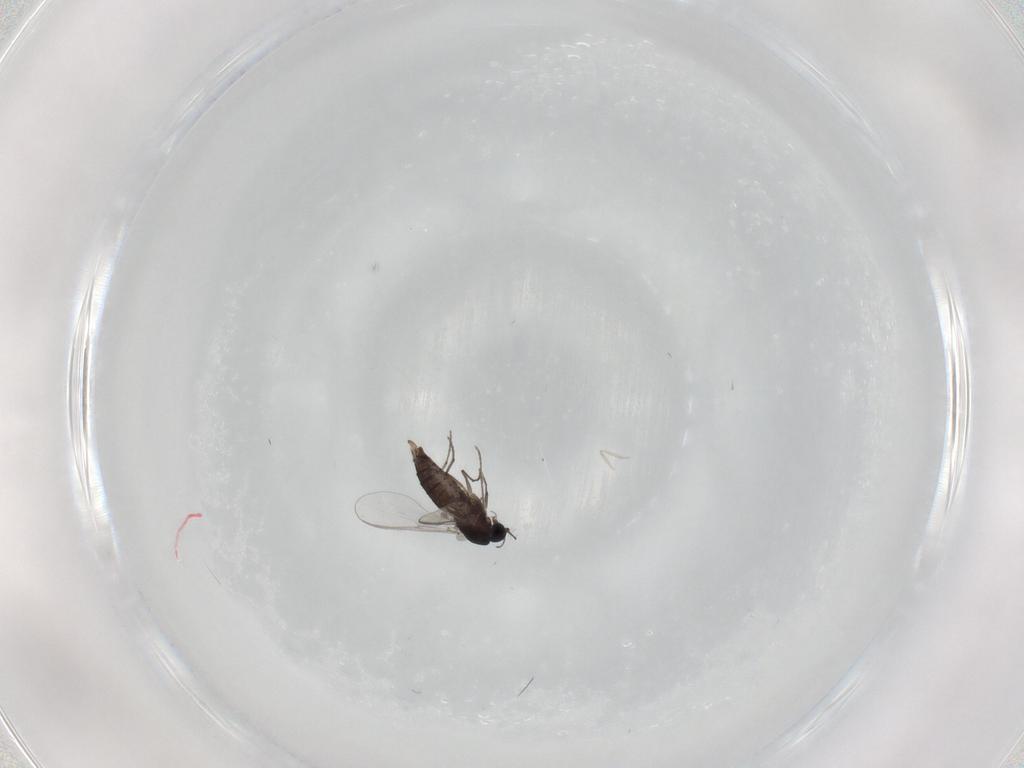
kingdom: Animalia
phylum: Arthropoda
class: Insecta
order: Diptera
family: Chironomidae
